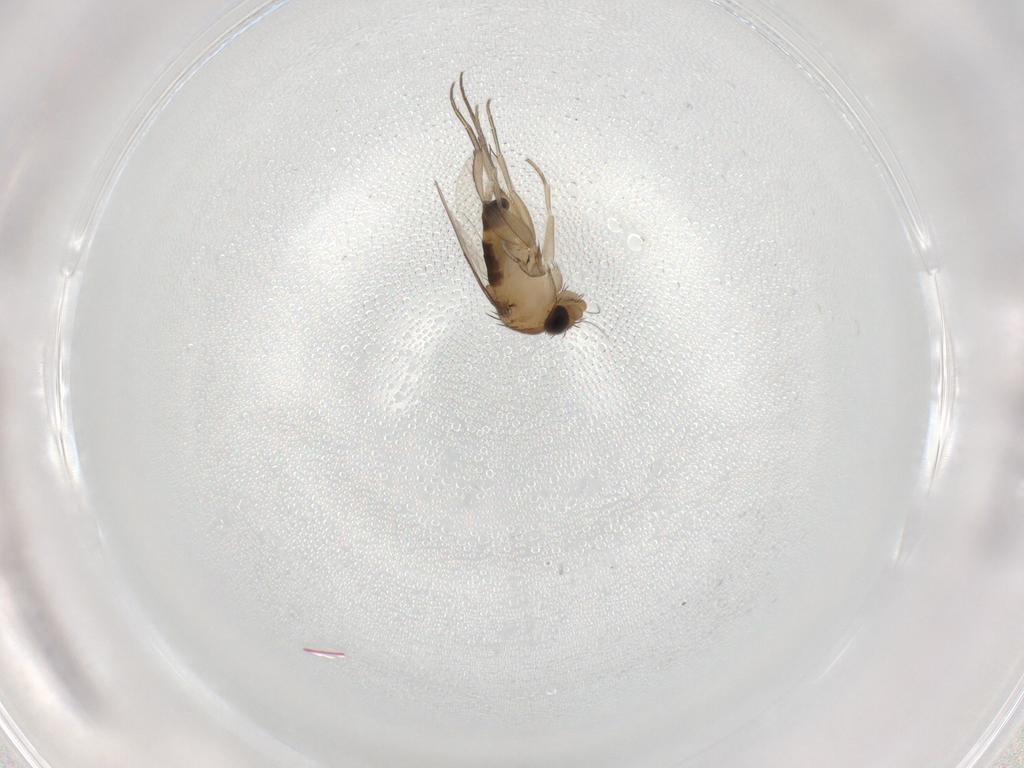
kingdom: Animalia
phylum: Arthropoda
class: Insecta
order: Diptera
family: Phoridae
